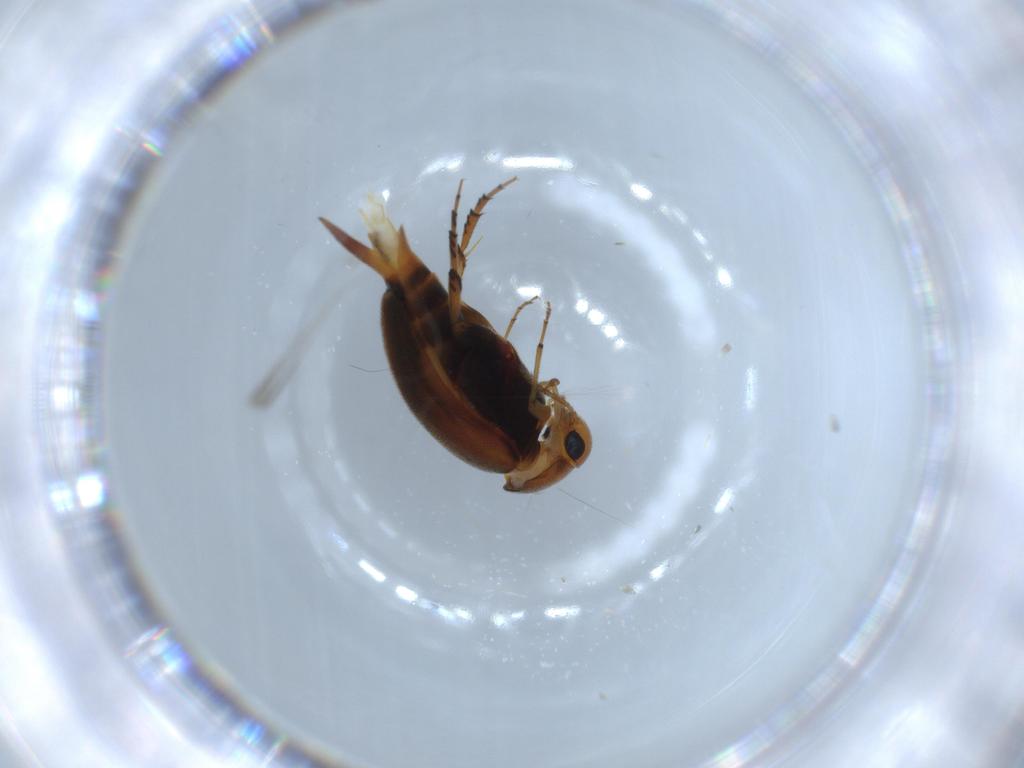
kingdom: Animalia
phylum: Arthropoda
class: Insecta
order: Coleoptera
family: Mordellidae
